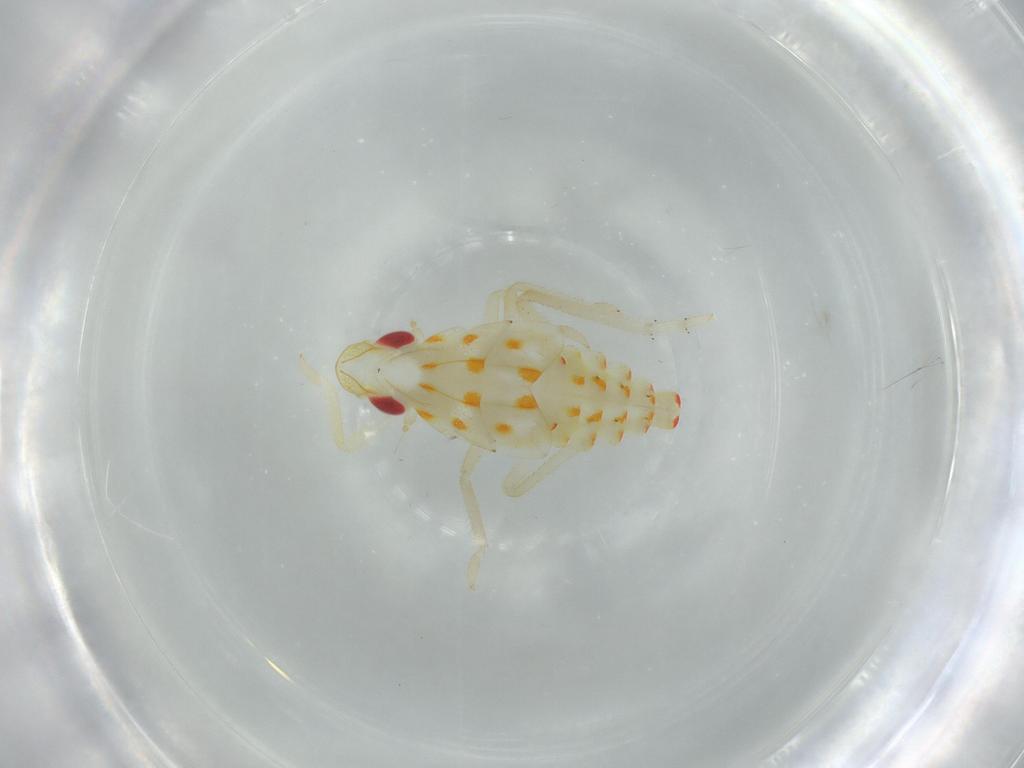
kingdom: Animalia
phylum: Arthropoda
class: Insecta
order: Hemiptera
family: Tropiduchidae
